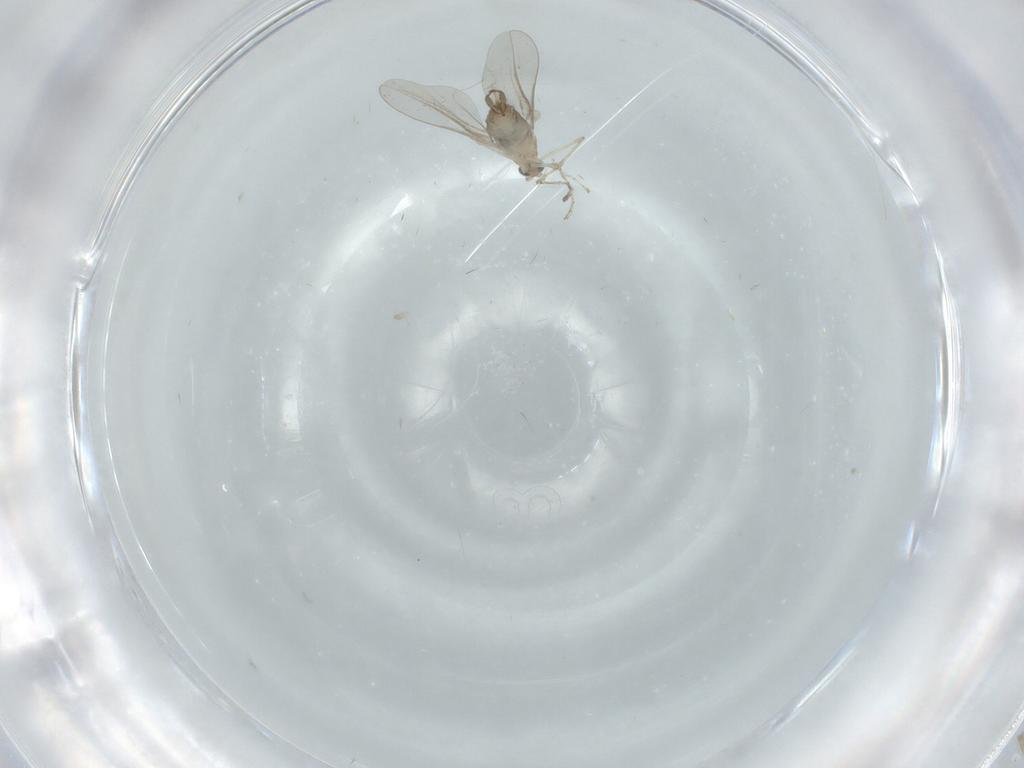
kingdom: Animalia
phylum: Arthropoda
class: Insecta
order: Diptera
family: Cecidomyiidae
